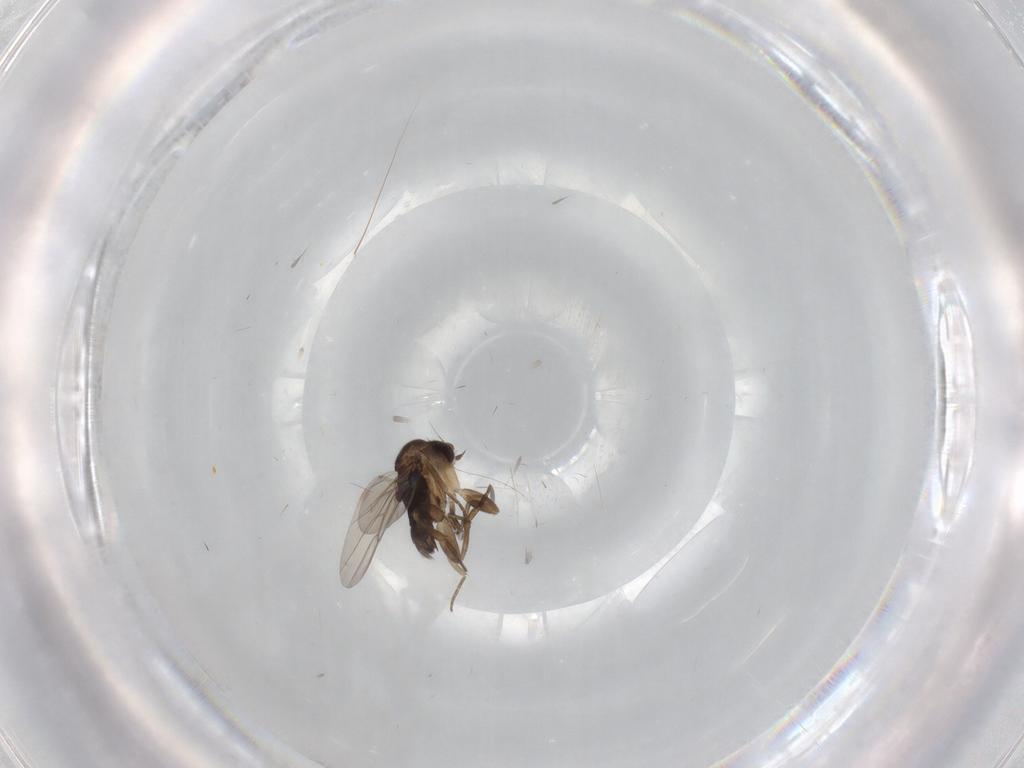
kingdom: Animalia
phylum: Arthropoda
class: Insecta
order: Diptera
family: Phoridae
